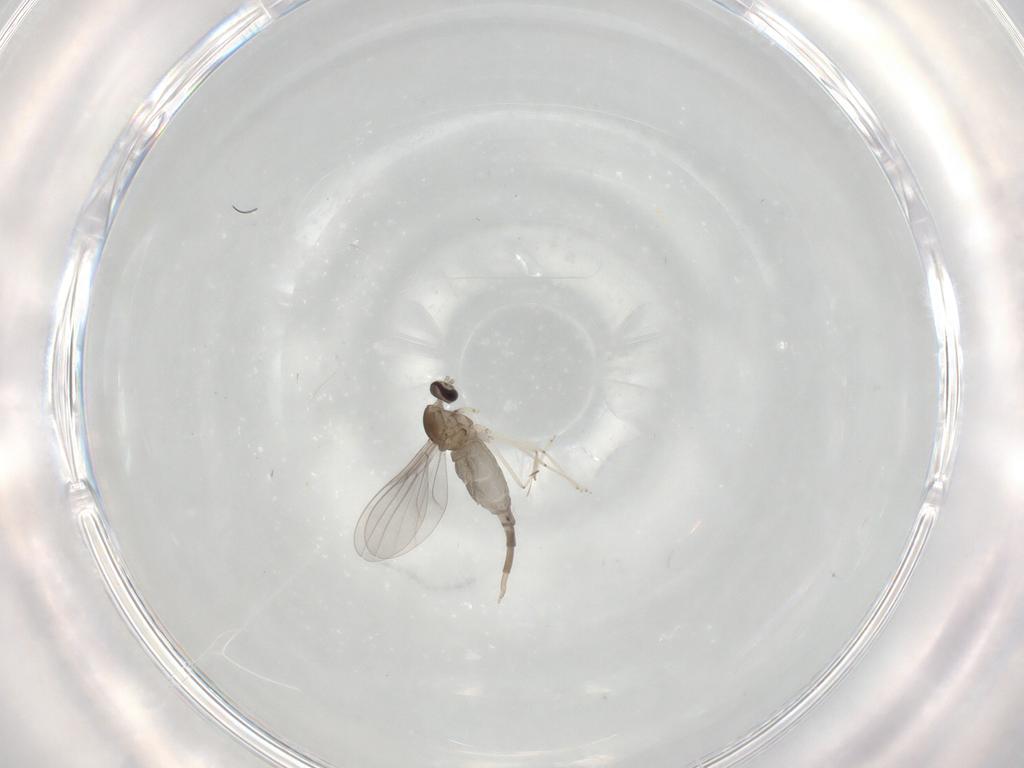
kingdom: Animalia
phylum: Arthropoda
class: Insecta
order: Diptera
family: Cecidomyiidae
